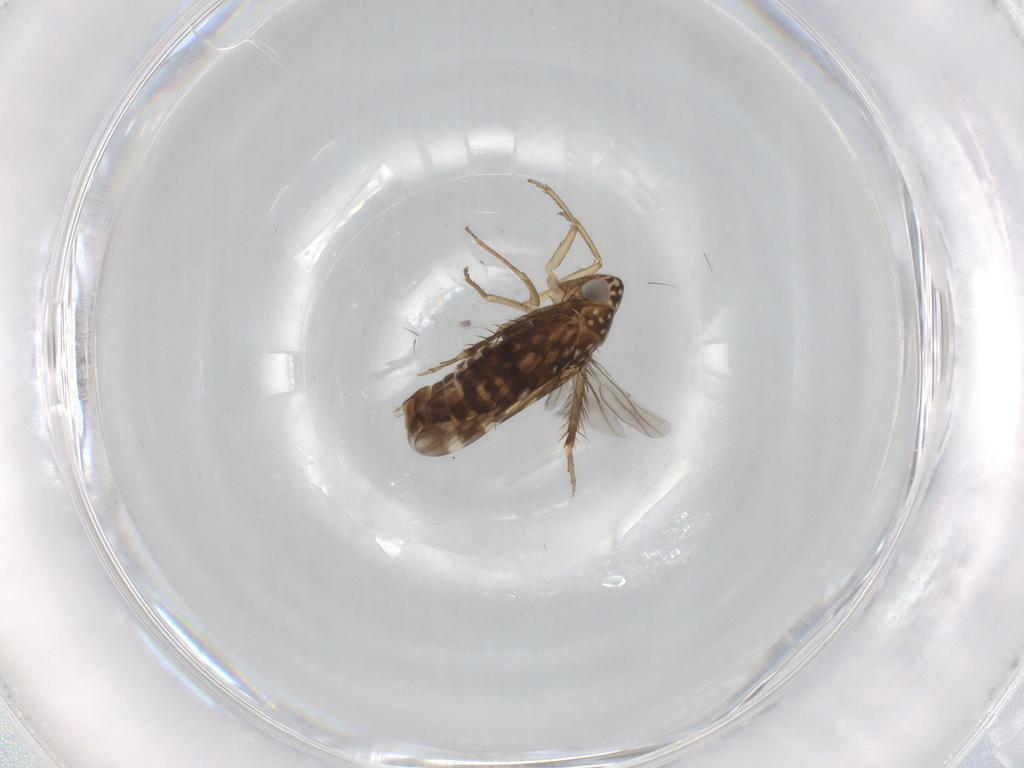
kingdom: Animalia
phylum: Arthropoda
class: Insecta
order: Hemiptera
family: Cicadellidae
